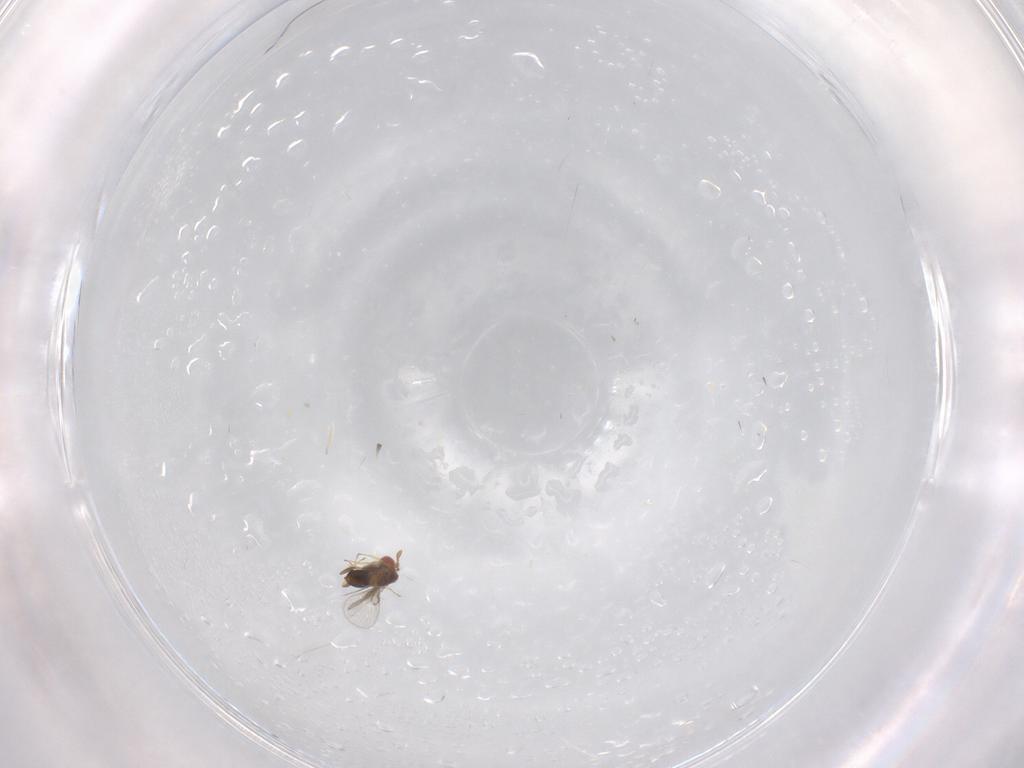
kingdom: Animalia
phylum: Arthropoda
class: Insecta
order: Hymenoptera
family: Trichogrammatidae
